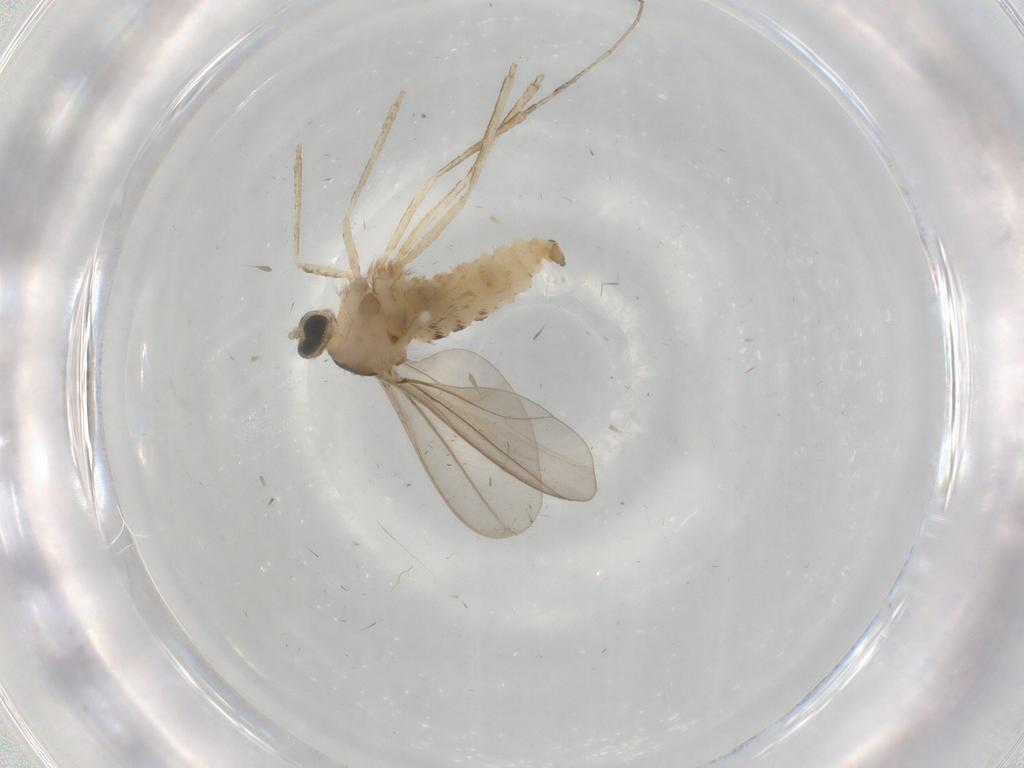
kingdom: Animalia
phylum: Arthropoda
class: Insecta
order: Diptera
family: Cecidomyiidae
